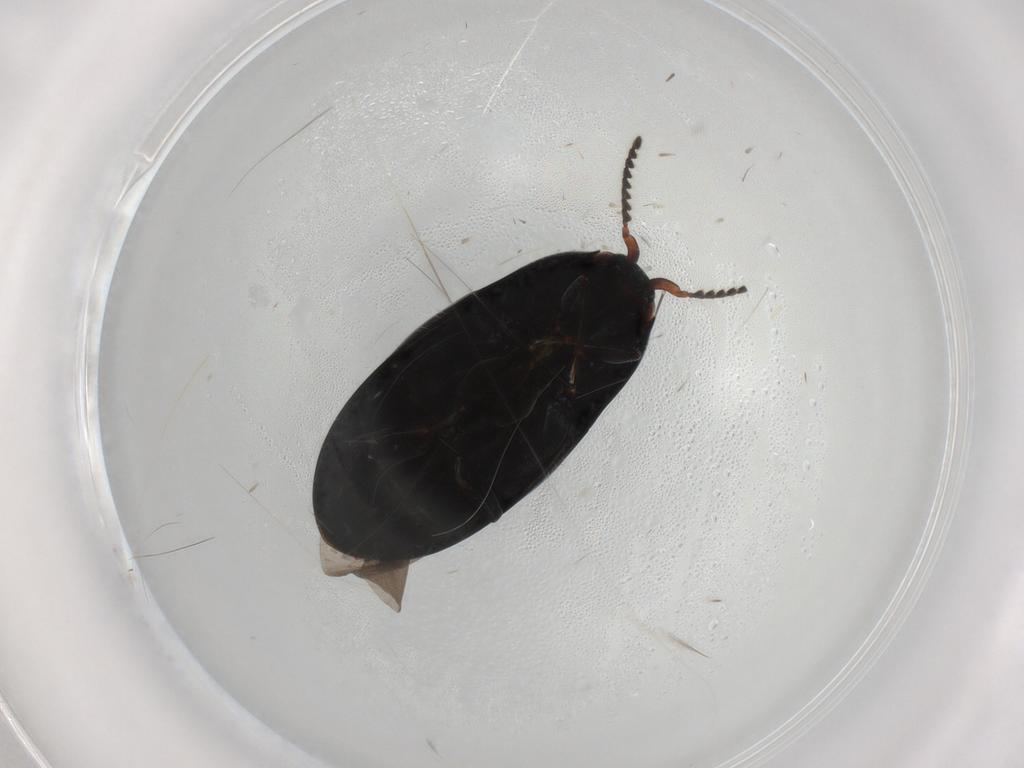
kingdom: Animalia
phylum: Arthropoda
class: Insecta
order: Coleoptera
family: Elateridae
